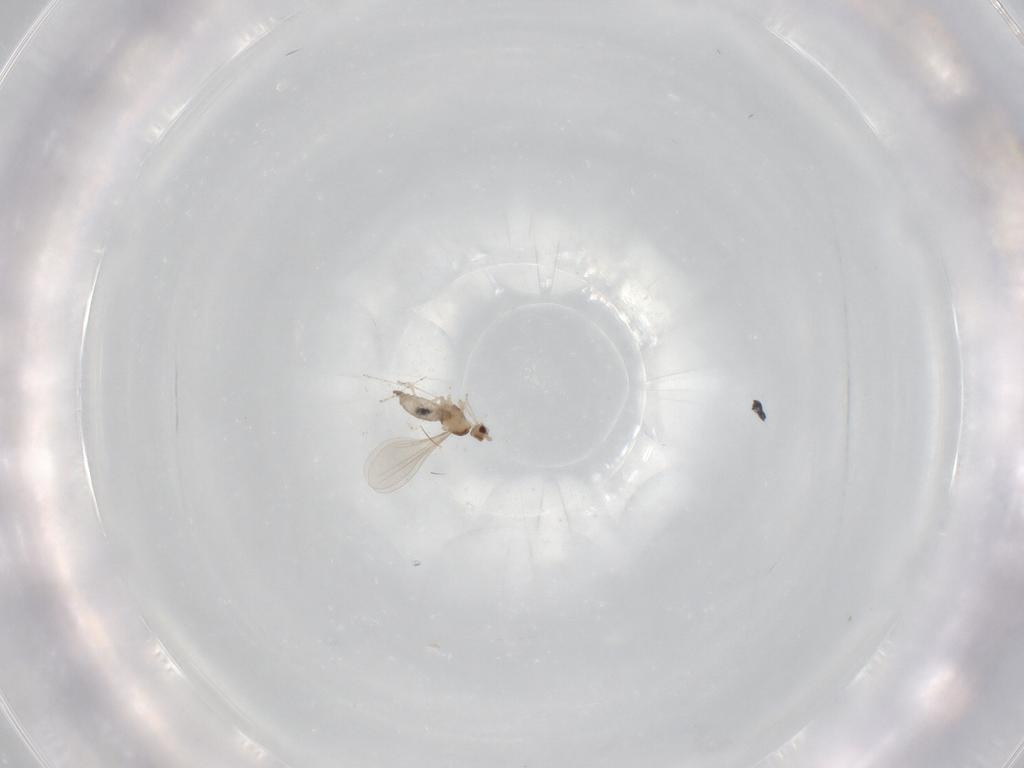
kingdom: Animalia
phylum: Arthropoda
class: Insecta
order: Diptera
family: Cecidomyiidae
